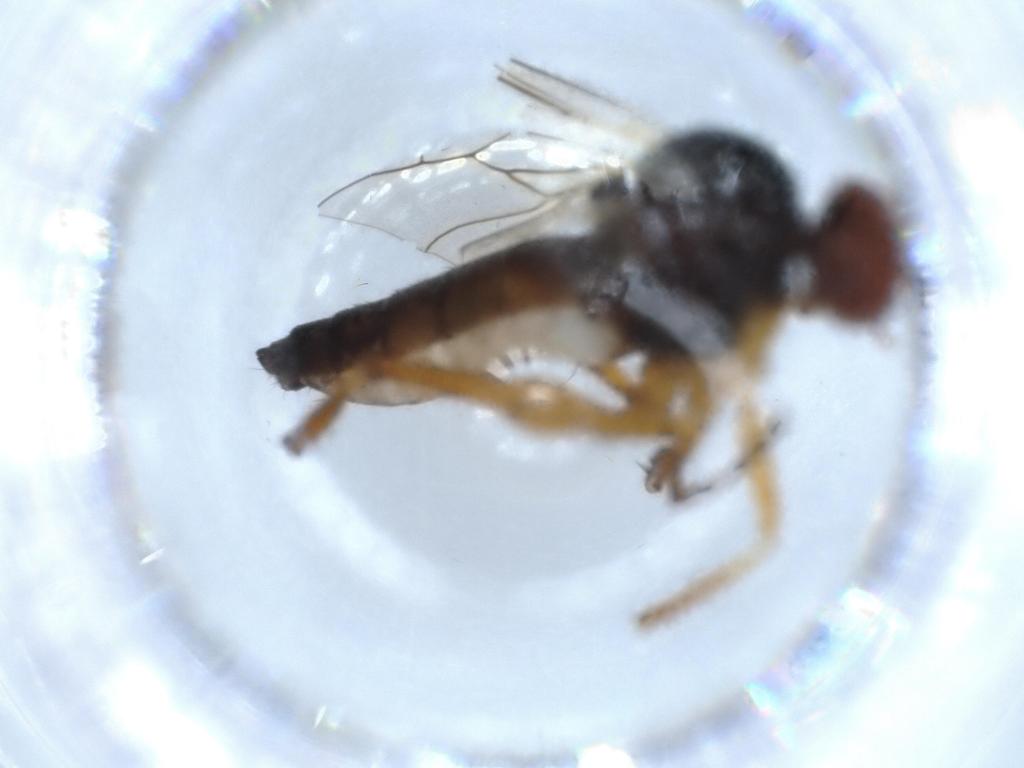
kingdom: Animalia
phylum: Arthropoda
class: Insecta
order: Diptera
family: Empididae
